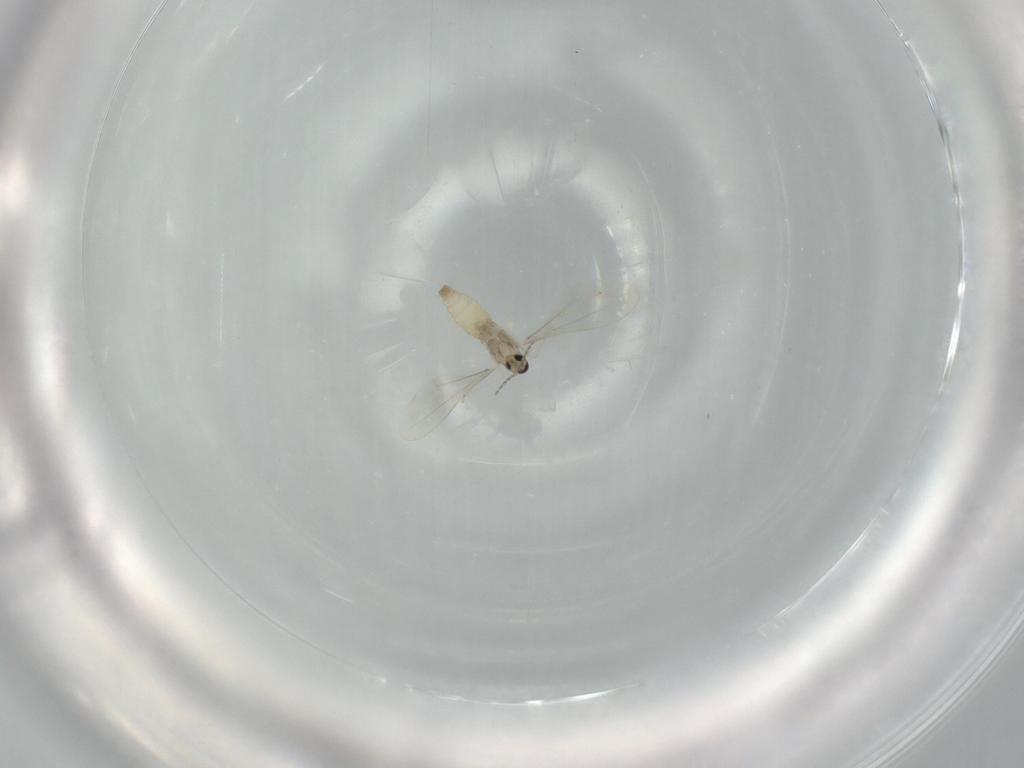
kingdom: Animalia
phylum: Arthropoda
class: Insecta
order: Diptera
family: Cecidomyiidae
